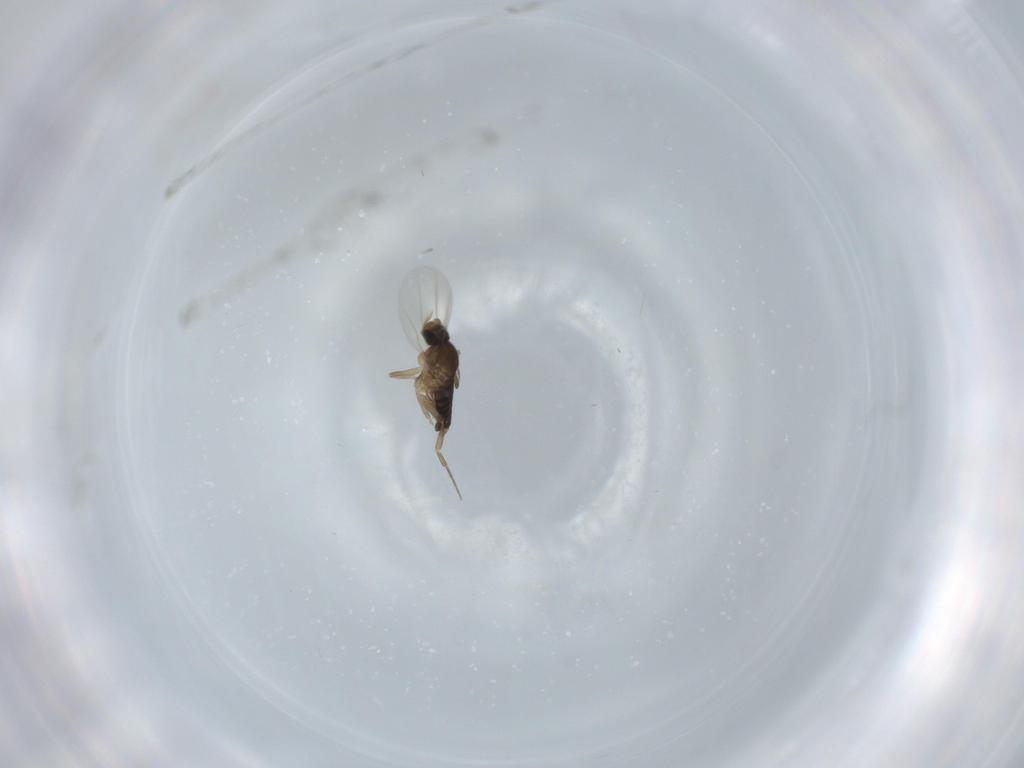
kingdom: Animalia
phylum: Arthropoda
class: Insecta
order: Diptera
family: Phoridae
